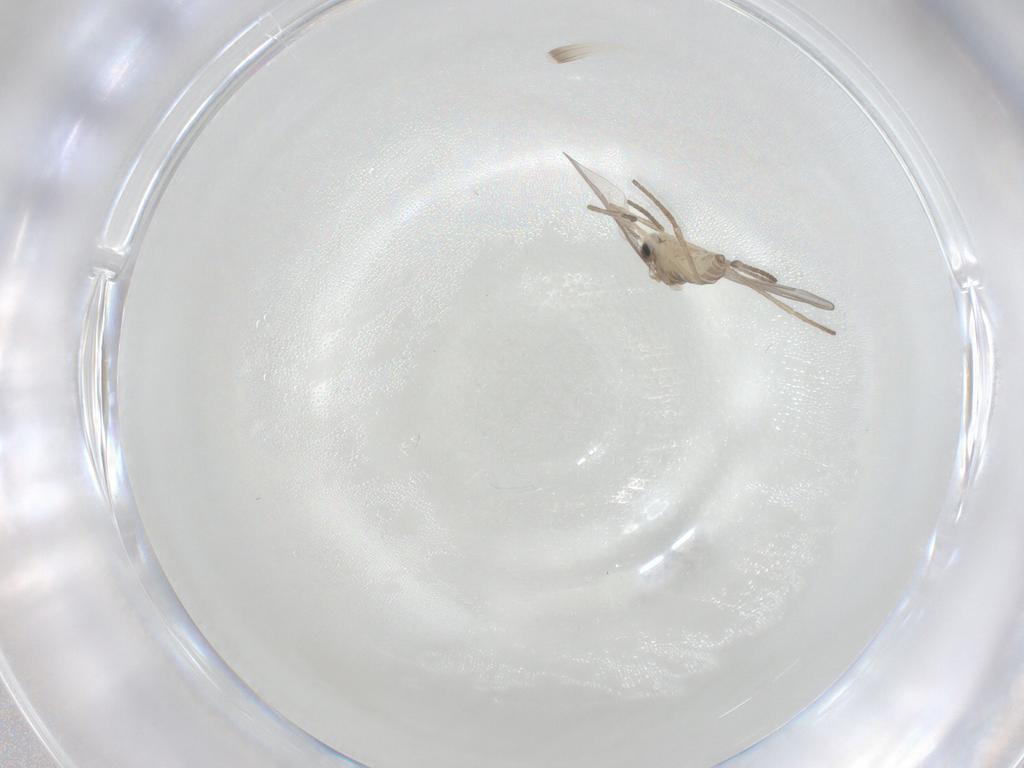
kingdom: Animalia
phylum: Arthropoda
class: Insecta
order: Diptera
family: Cecidomyiidae
